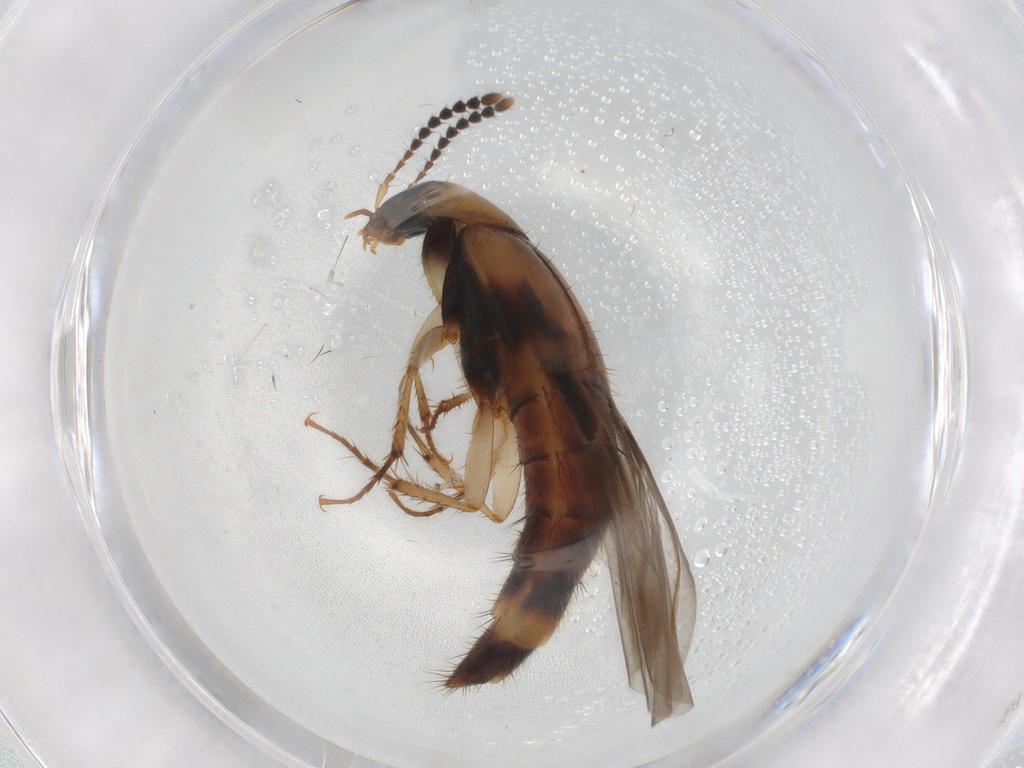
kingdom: Animalia
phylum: Arthropoda
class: Insecta
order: Coleoptera
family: Staphylinidae
